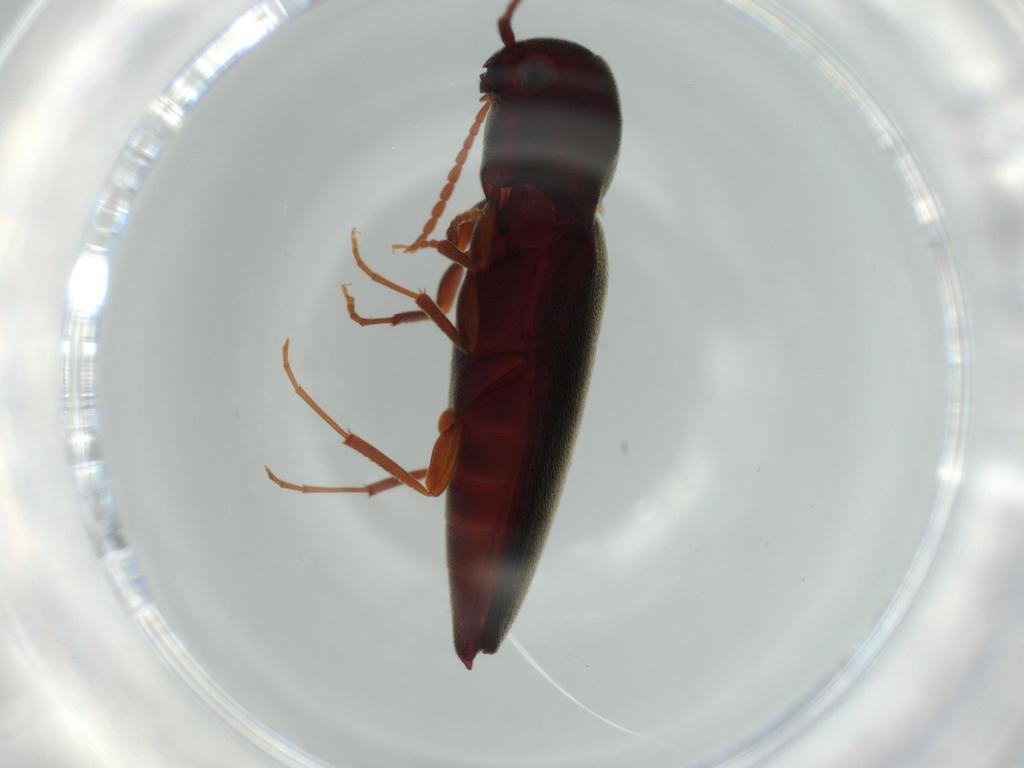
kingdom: Animalia
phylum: Arthropoda
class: Insecta
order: Coleoptera
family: Eucnemidae
